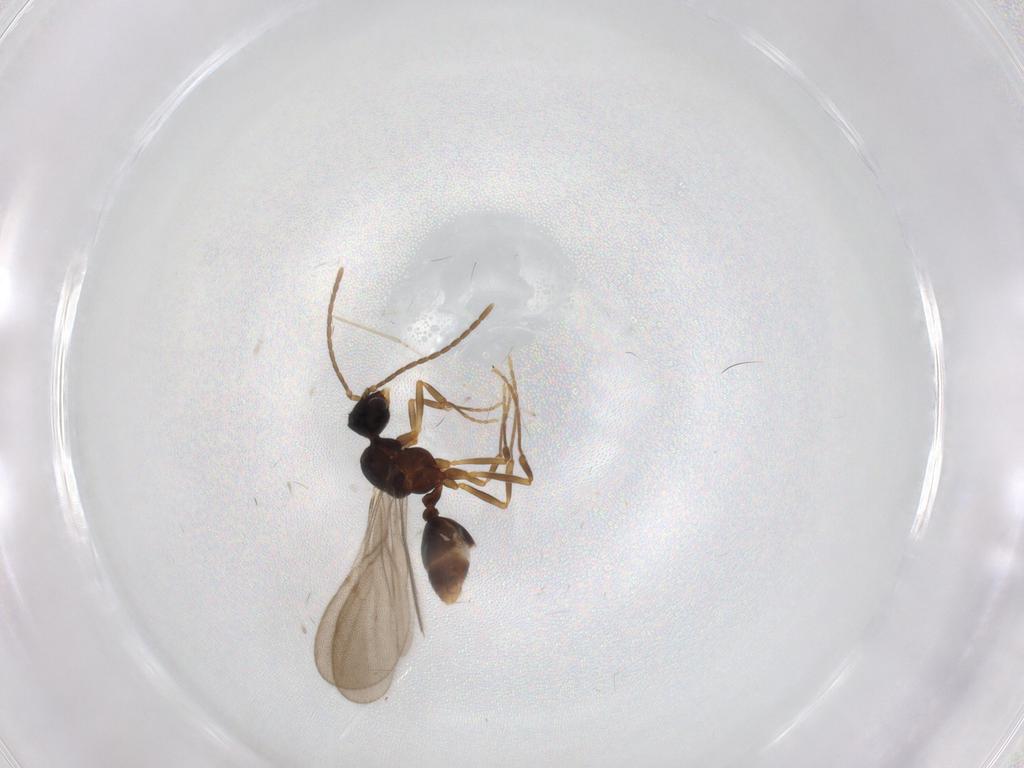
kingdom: Animalia
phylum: Arthropoda
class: Insecta
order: Hymenoptera
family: Formicidae
